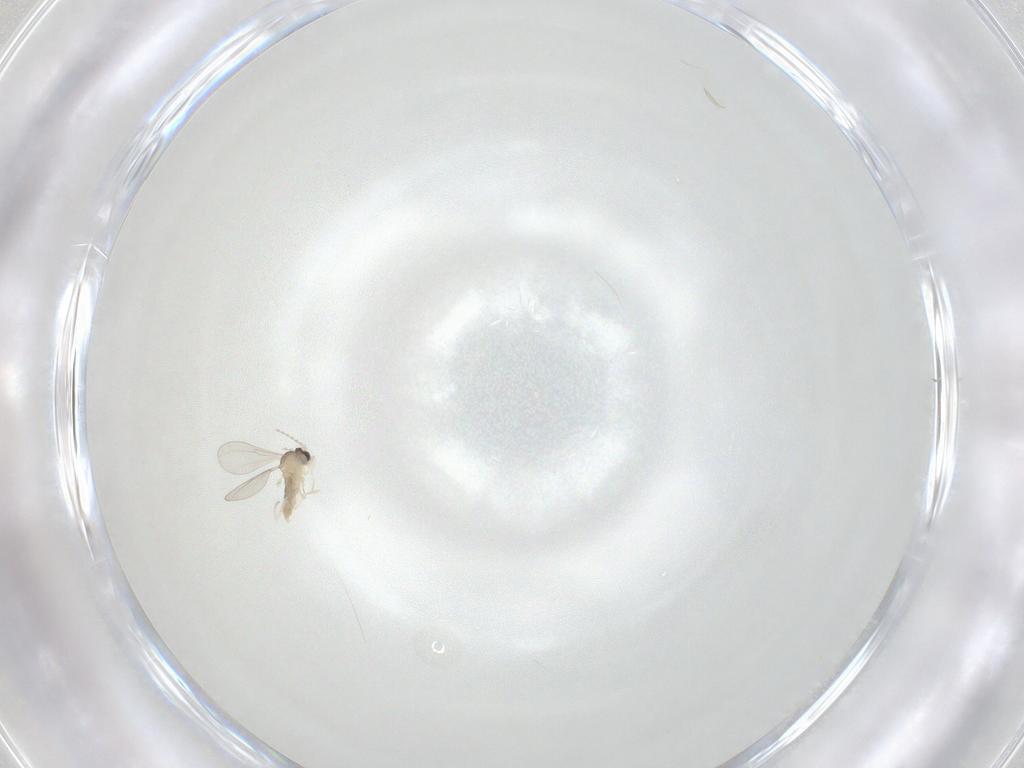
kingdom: Animalia
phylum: Arthropoda
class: Insecta
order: Diptera
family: Cecidomyiidae
